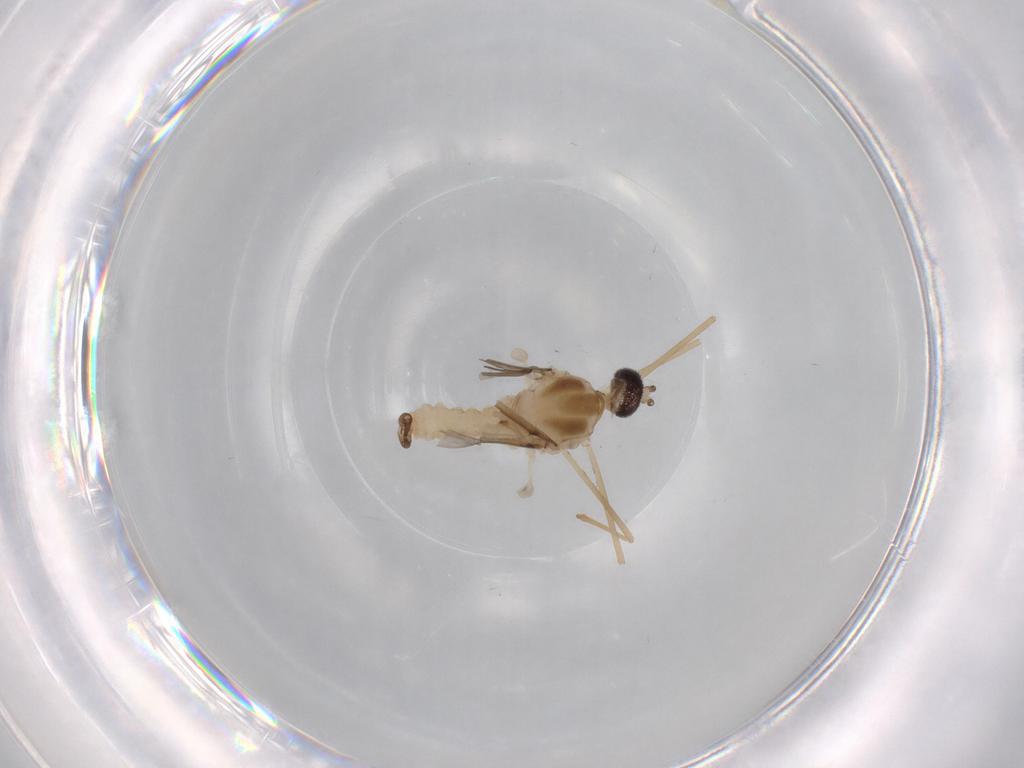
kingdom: Animalia
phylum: Arthropoda
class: Insecta
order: Diptera
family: Cecidomyiidae
